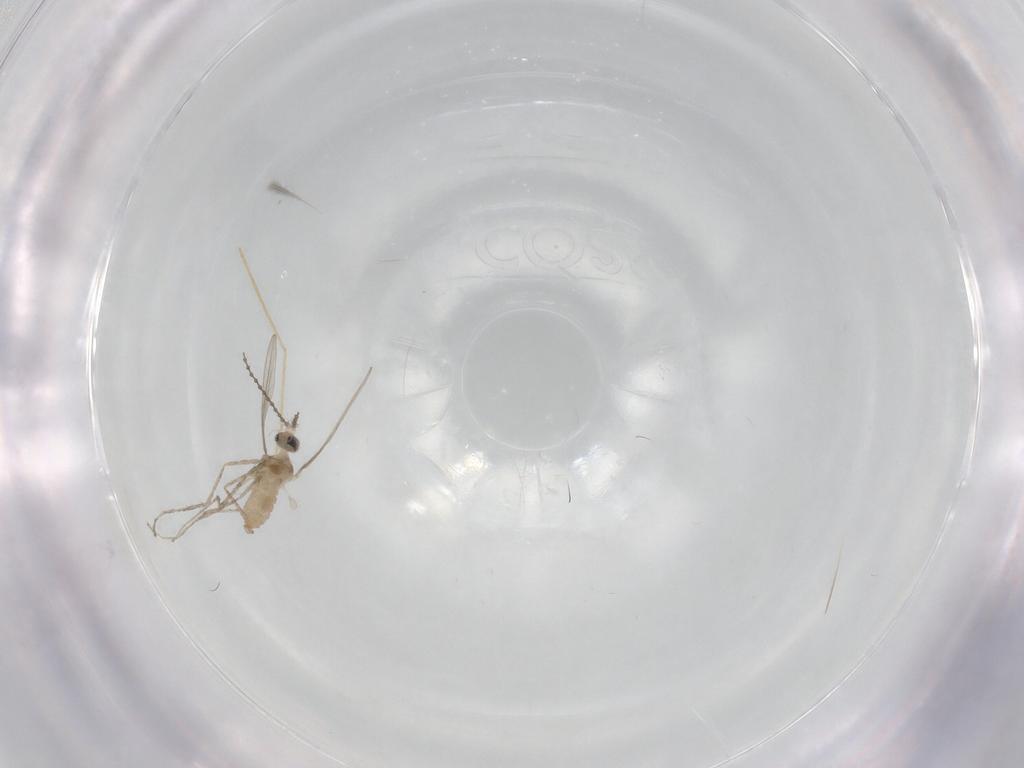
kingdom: Animalia
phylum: Arthropoda
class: Insecta
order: Diptera
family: Cecidomyiidae
